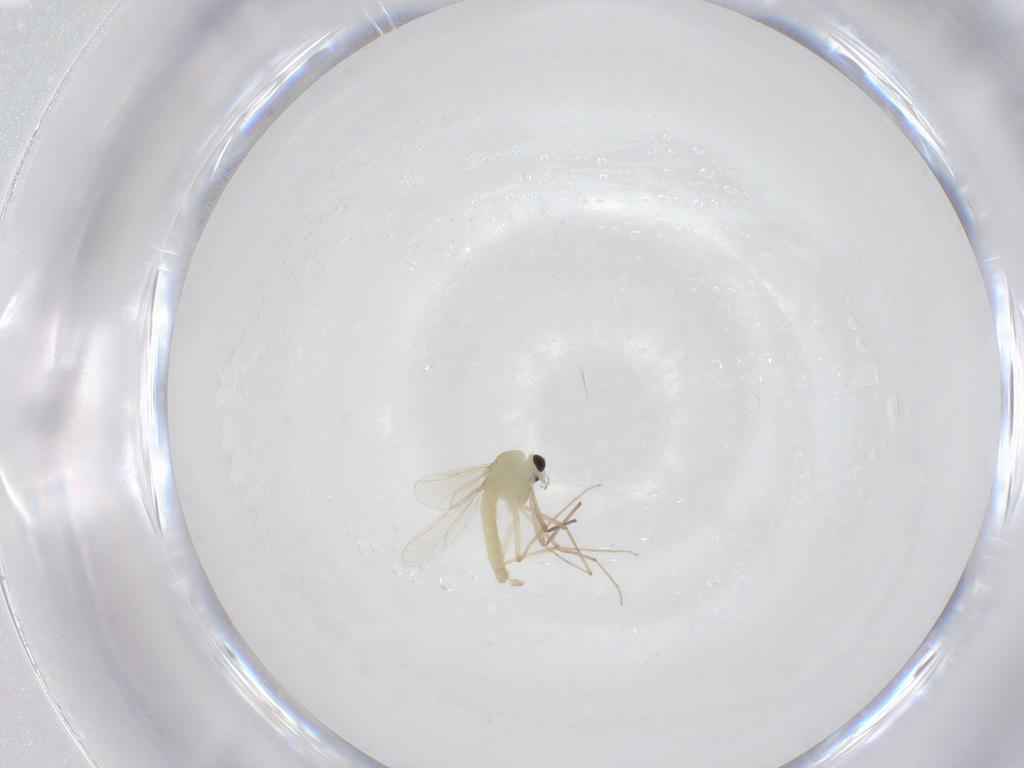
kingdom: Animalia
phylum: Arthropoda
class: Insecta
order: Diptera
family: Chironomidae
